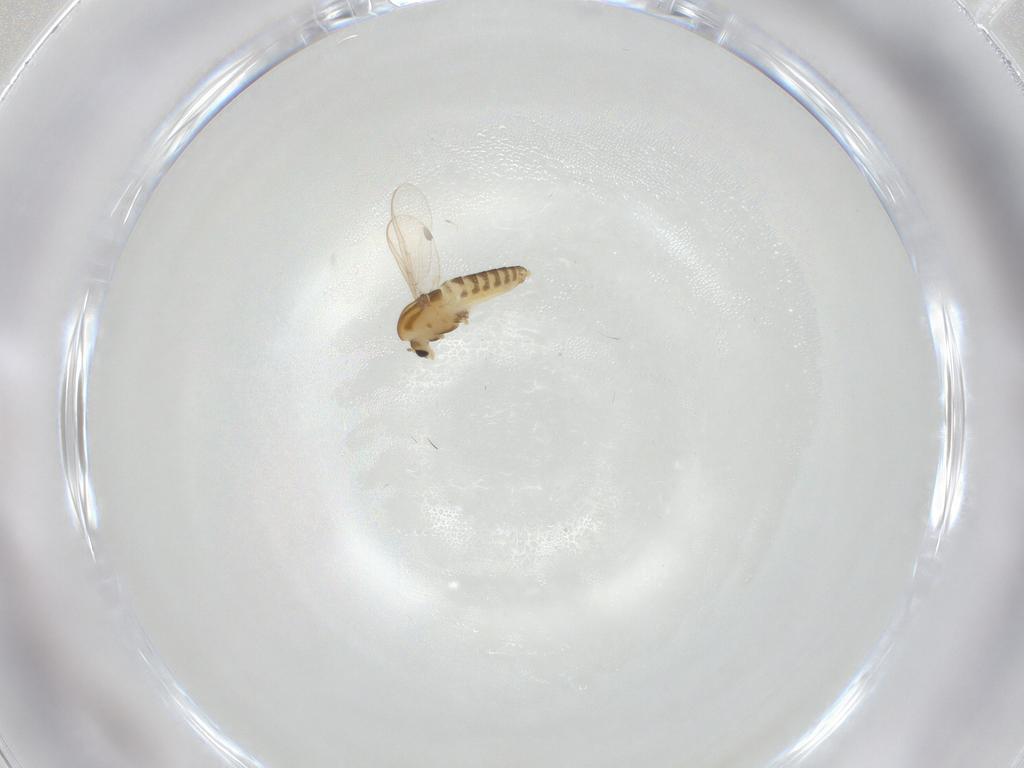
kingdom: Animalia
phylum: Arthropoda
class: Insecta
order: Diptera
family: Chironomidae
